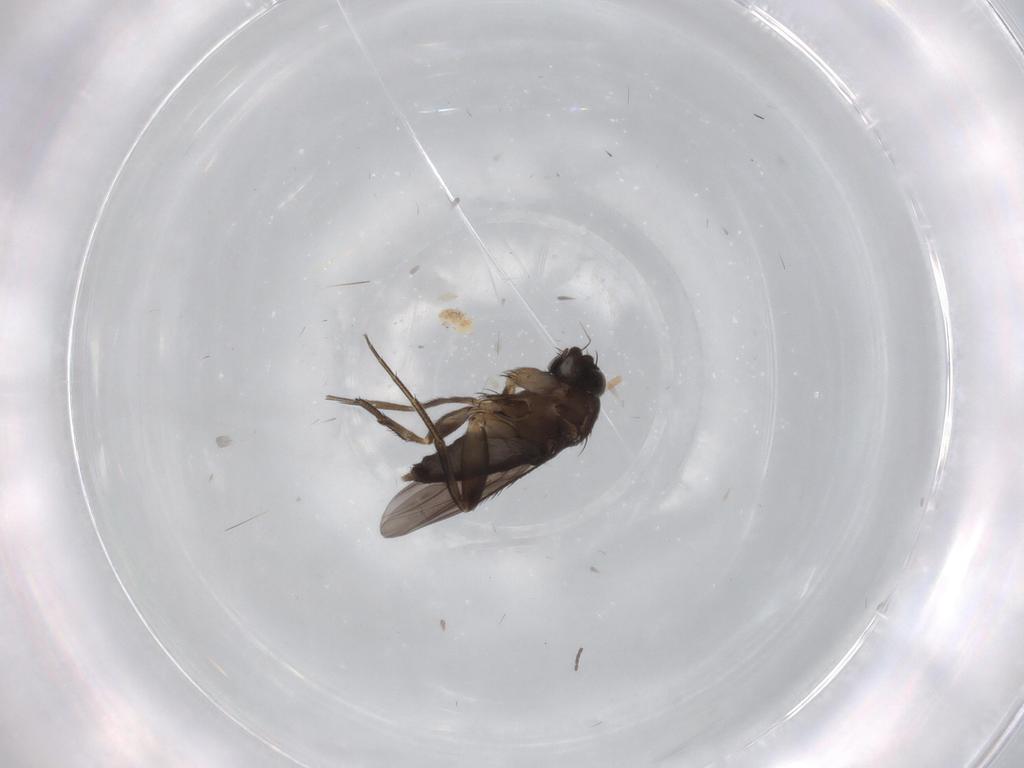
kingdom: Animalia
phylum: Arthropoda
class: Insecta
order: Diptera
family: Phoridae
